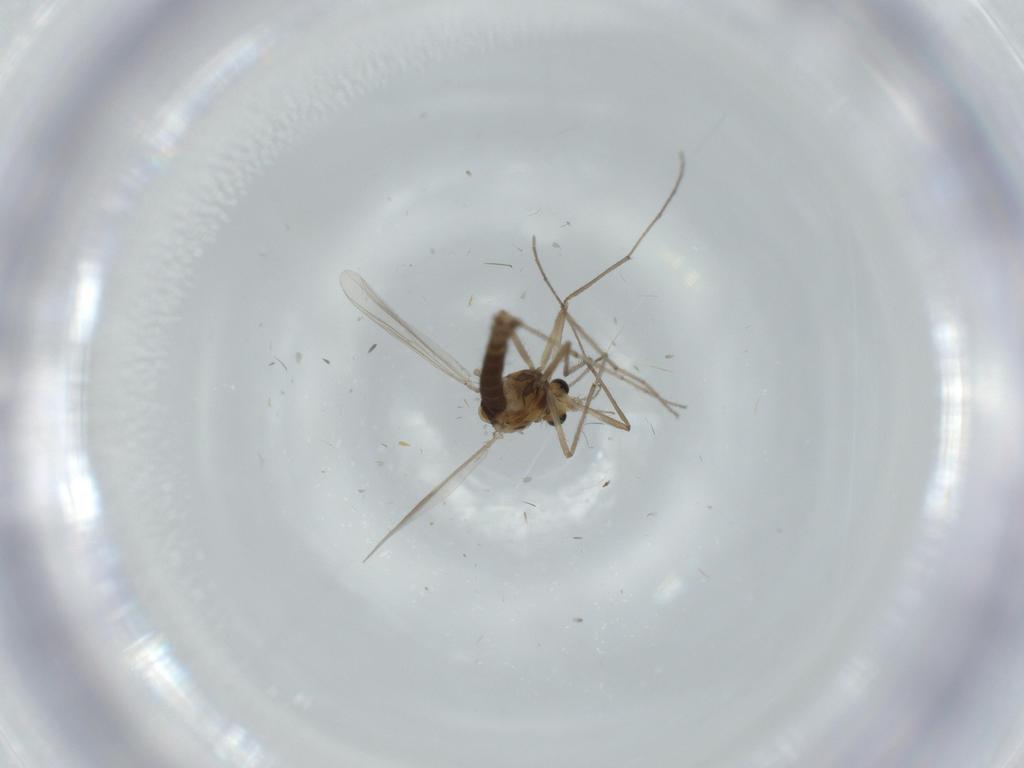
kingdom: Animalia
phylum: Arthropoda
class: Insecta
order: Diptera
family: Chironomidae
